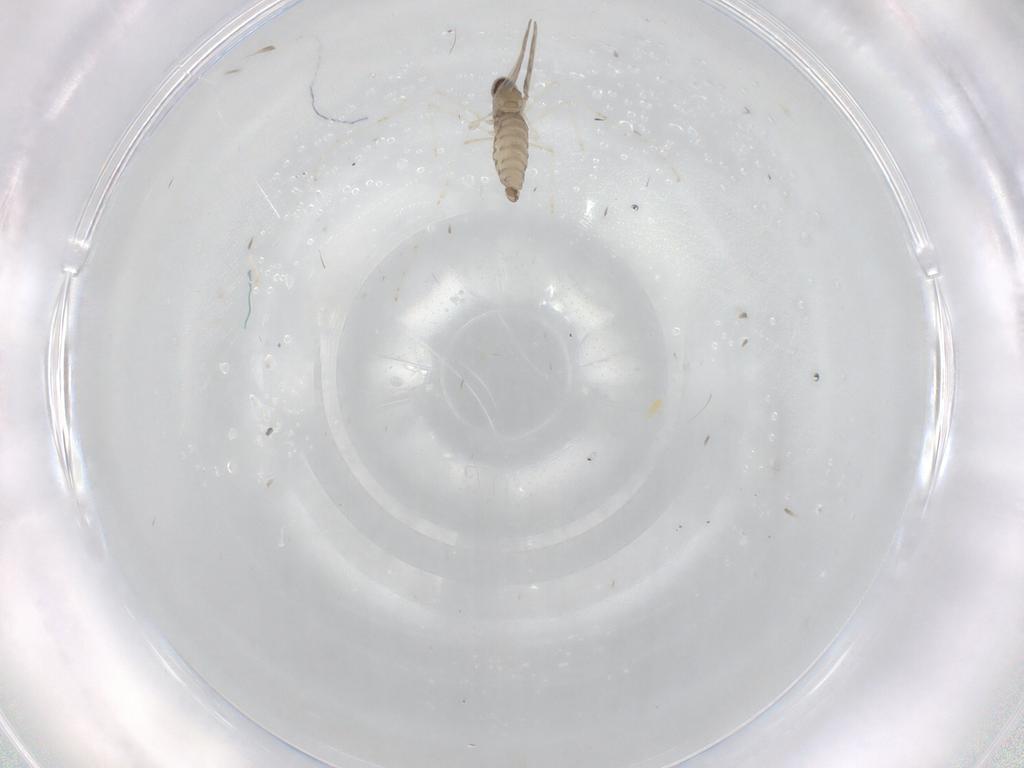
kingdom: Animalia
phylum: Arthropoda
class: Insecta
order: Diptera
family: Cecidomyiidae
